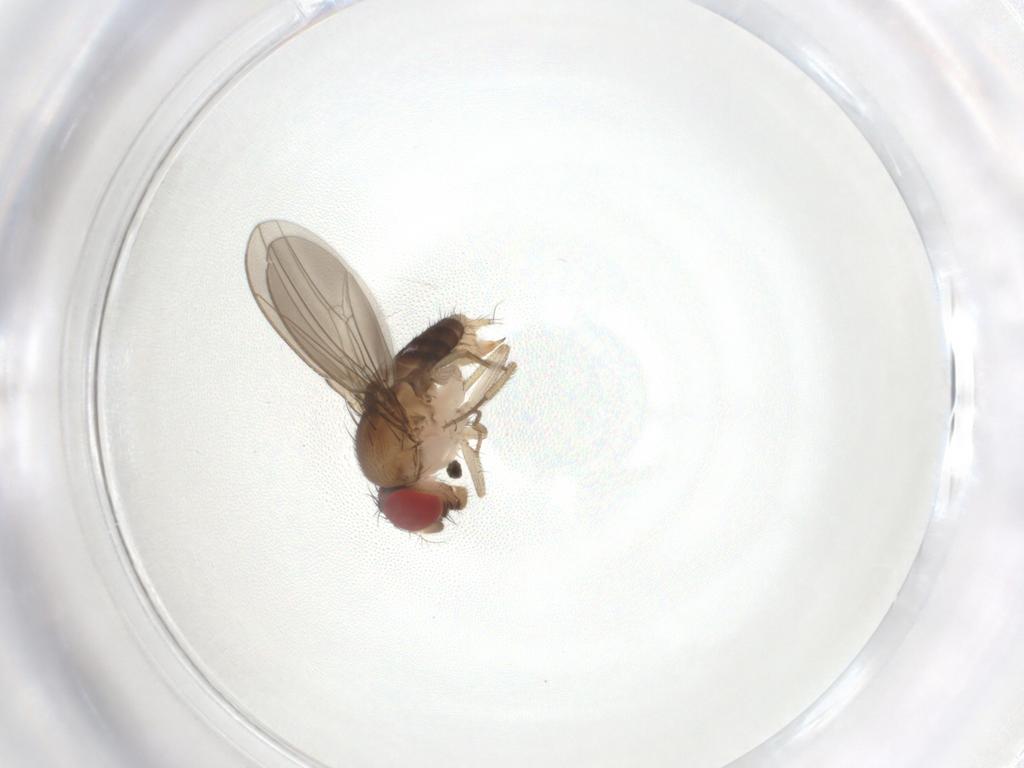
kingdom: Animalia
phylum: Arthropoda
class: Insecta
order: Diptera
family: Drosophilidae
